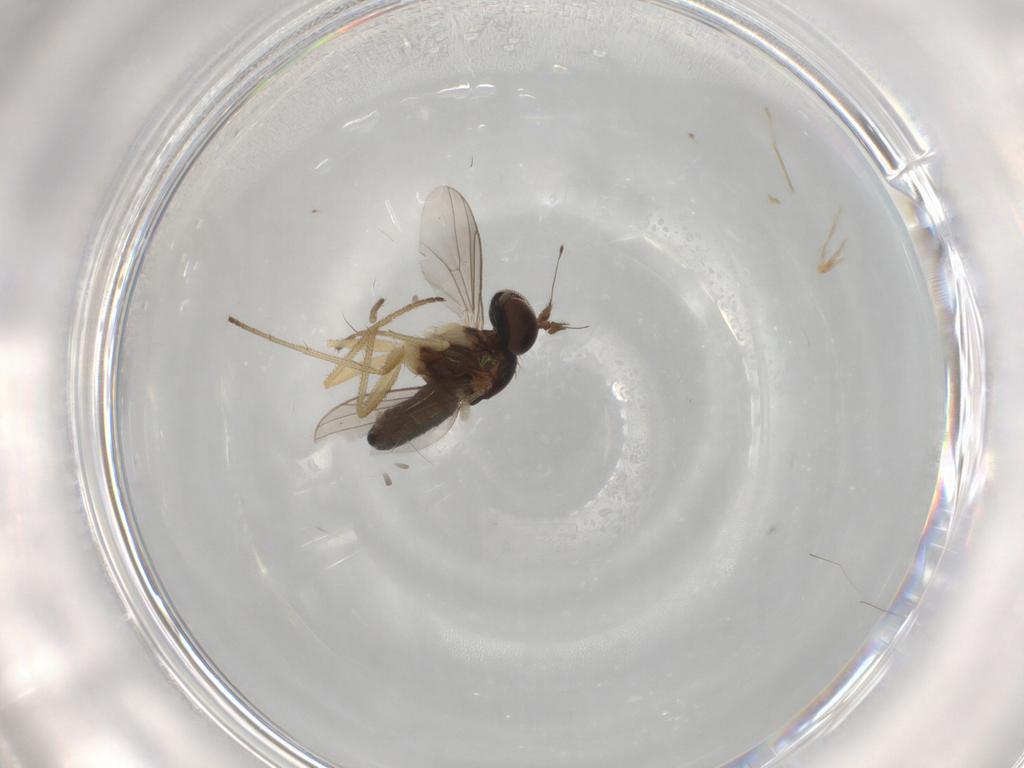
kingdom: Animalia
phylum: Arthropoda
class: Insecta
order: Diptera
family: Dolichopodidae
